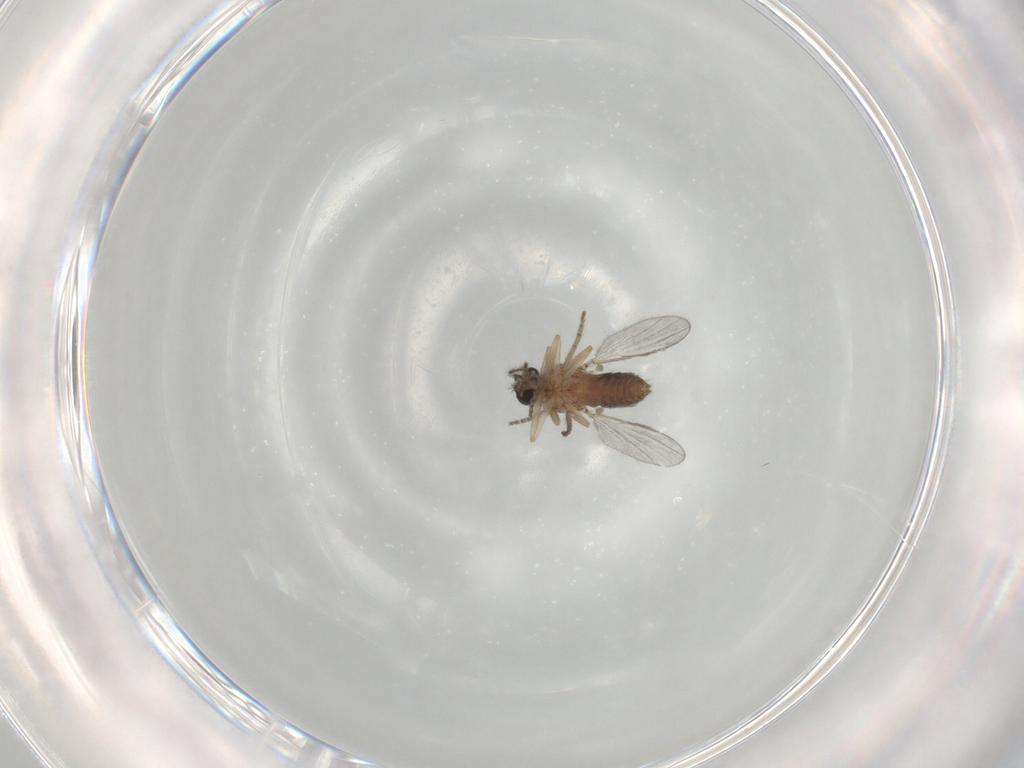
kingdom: Animalia
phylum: Arthropoda
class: Insecta
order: Diptera
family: Ceratopogonidae
